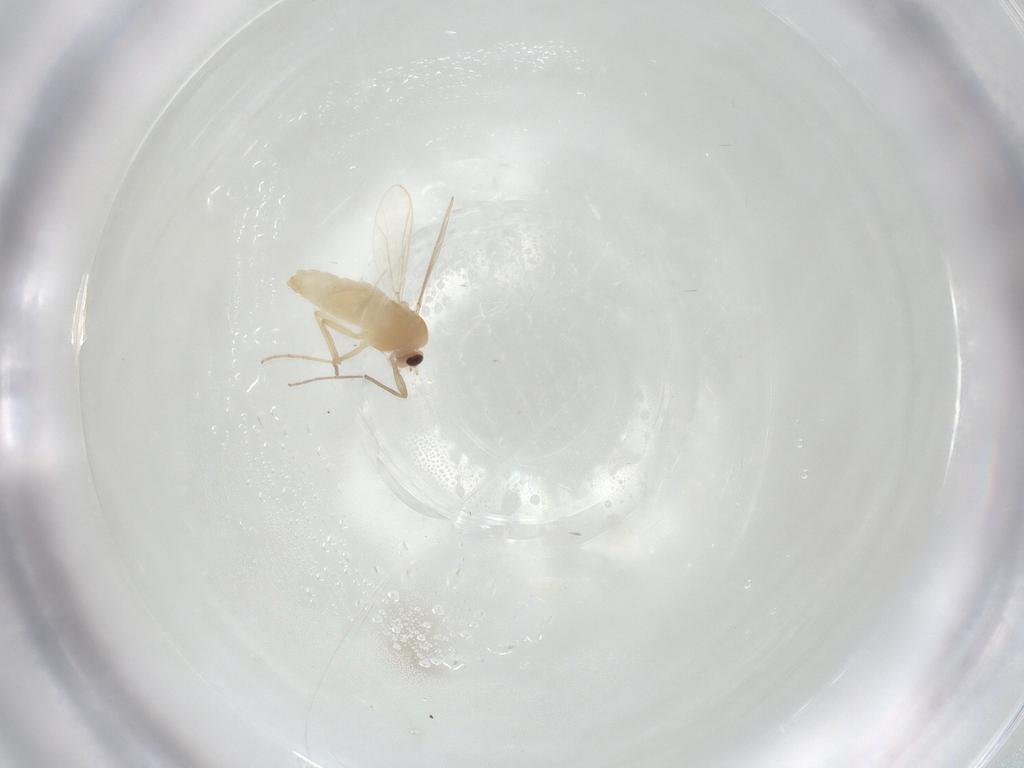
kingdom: Animalia
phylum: Arthropoda
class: Insecta
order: Diptera
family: Chironomidae
